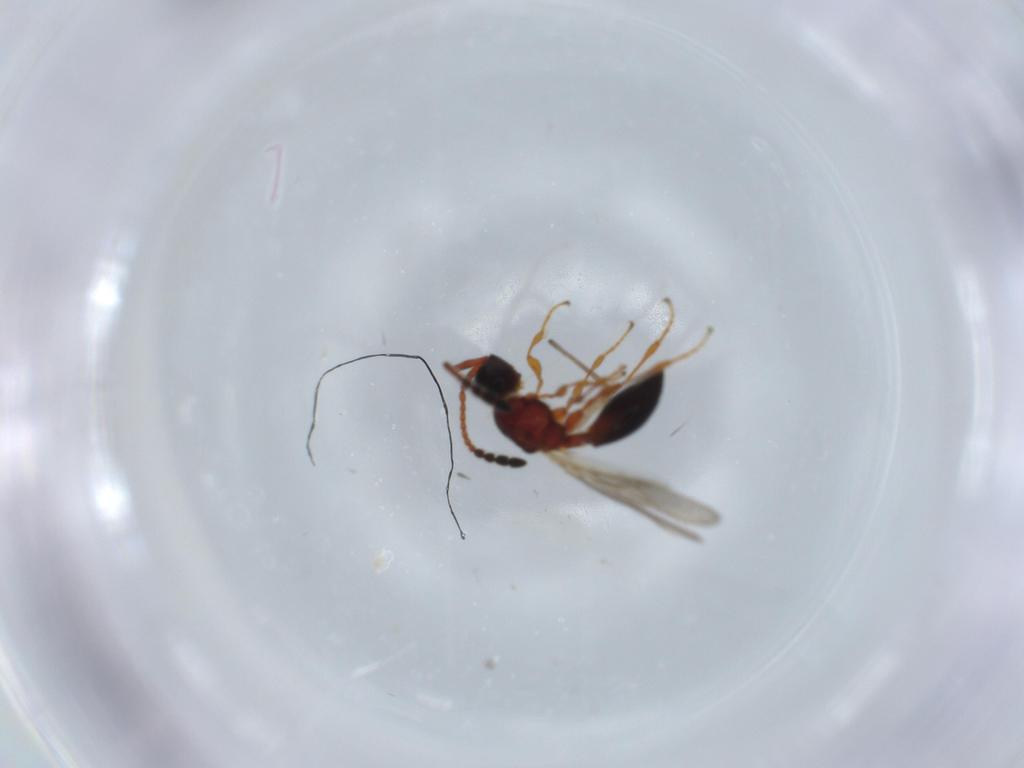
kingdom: Animalia
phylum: Arthropoda
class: Insecta
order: Hymenoptera
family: Diapriidae
